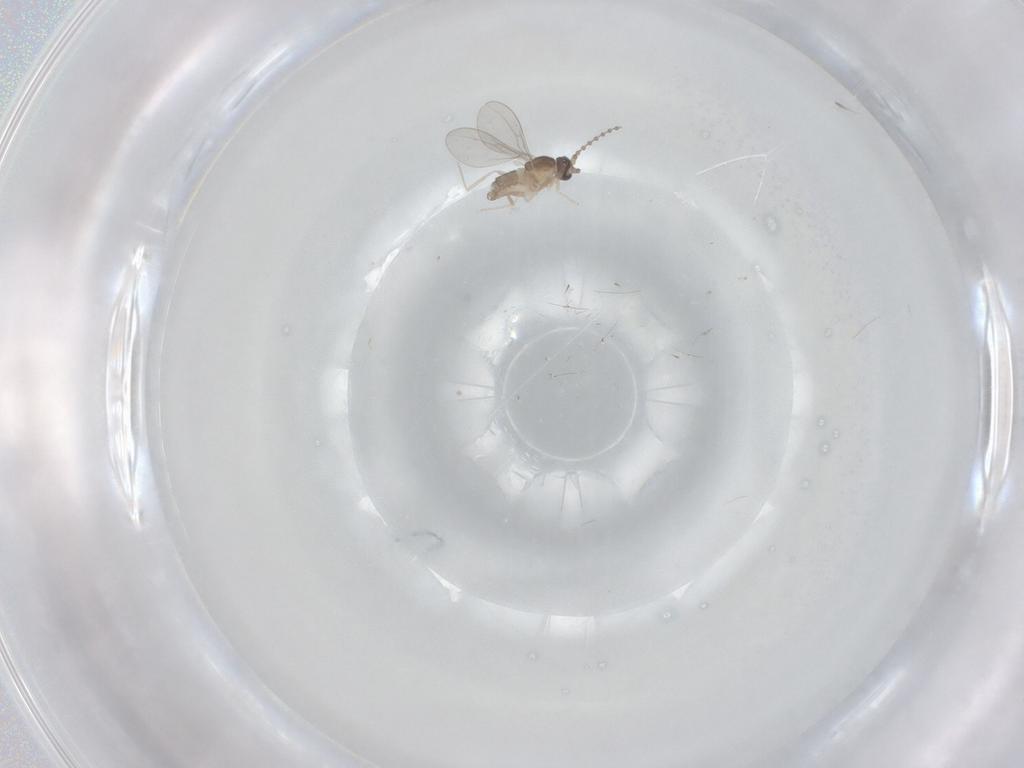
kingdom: Animalia
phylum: Arthropoda
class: Insecta
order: Diptera
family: Cecidomyiidae
